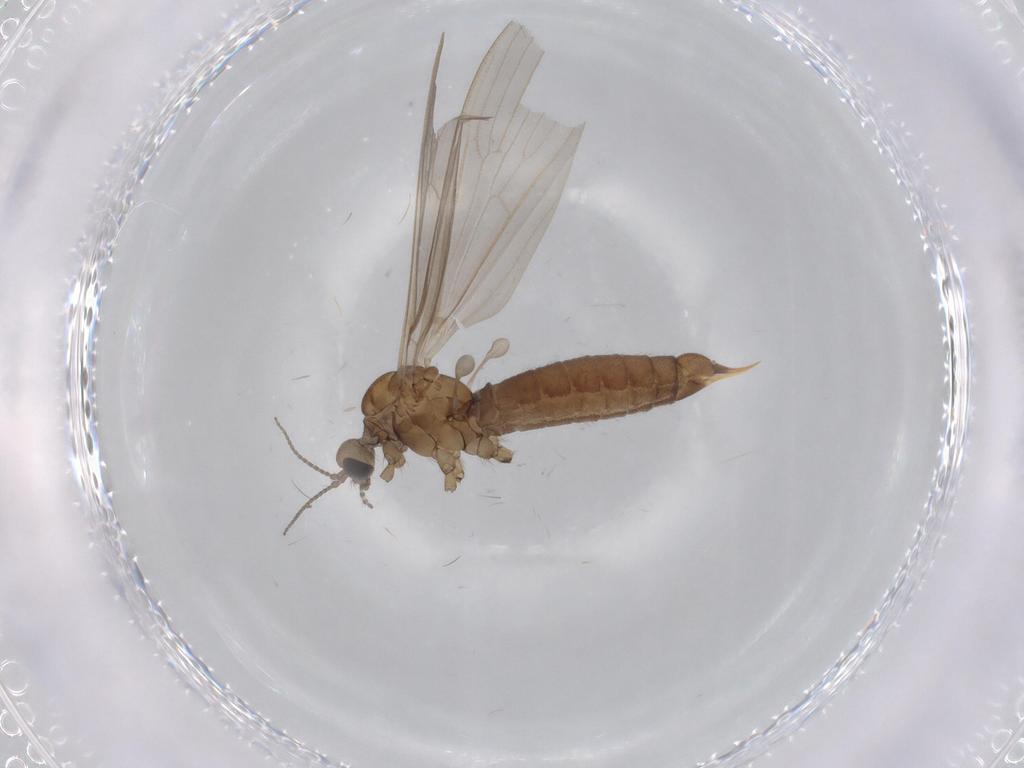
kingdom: Animalia
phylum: Arthropoda
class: Insecta
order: Diptera
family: Limoniidae
